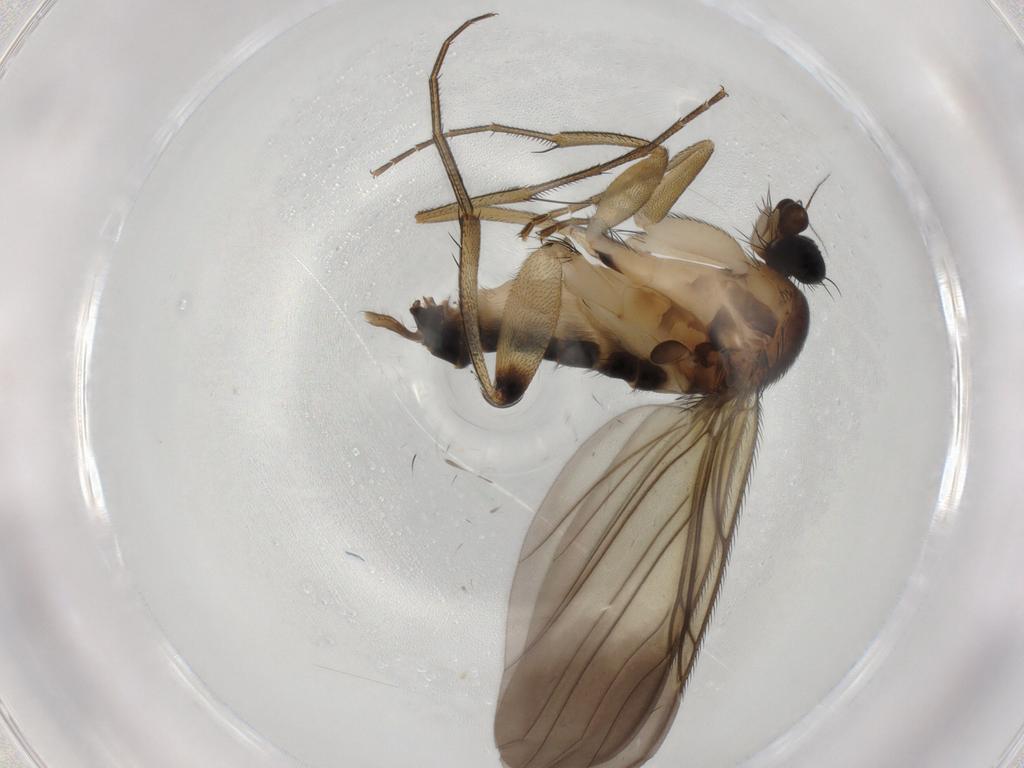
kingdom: Animalia
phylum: Arthropoda
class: Insecta
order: Diptera
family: Phoridae
